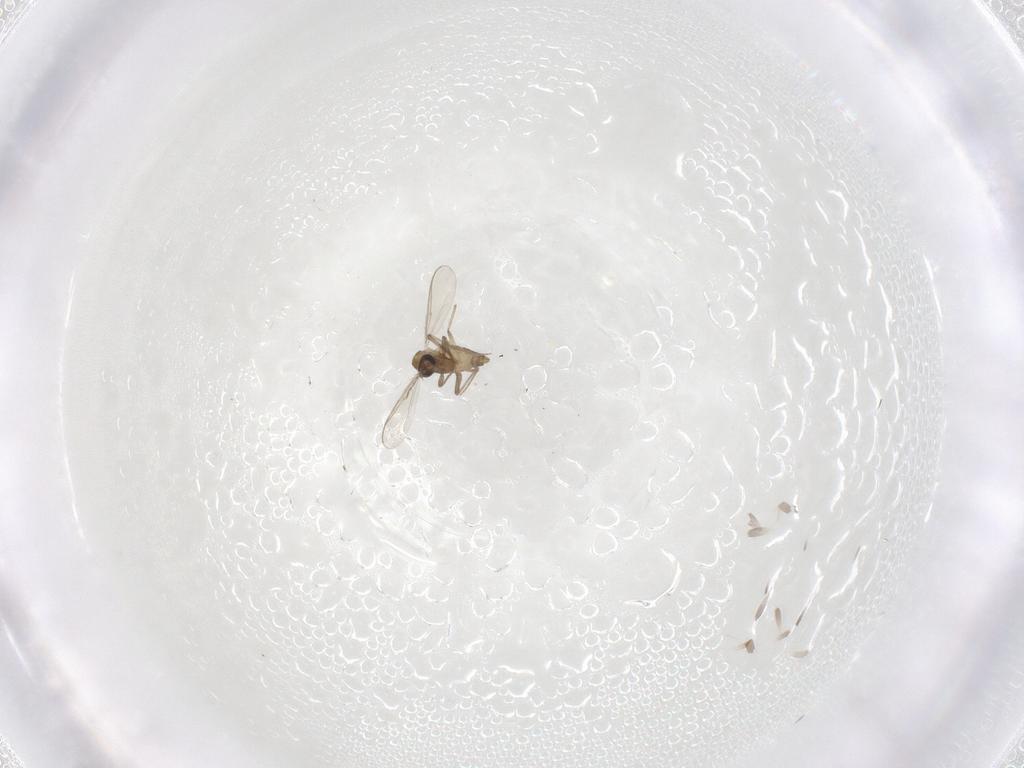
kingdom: Animalia
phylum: Arthropoda
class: Insecta
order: Diptera
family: Chironomidae
